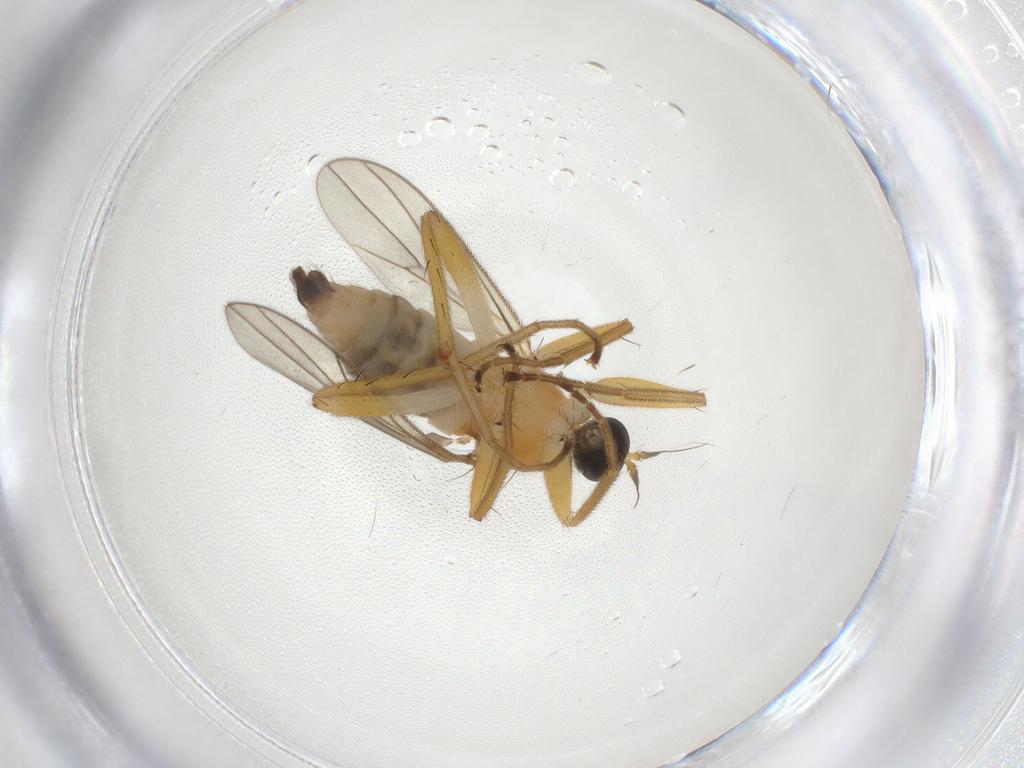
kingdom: Animalia
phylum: Arthropoda
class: Insecta
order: Diptera
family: Hybotidae
